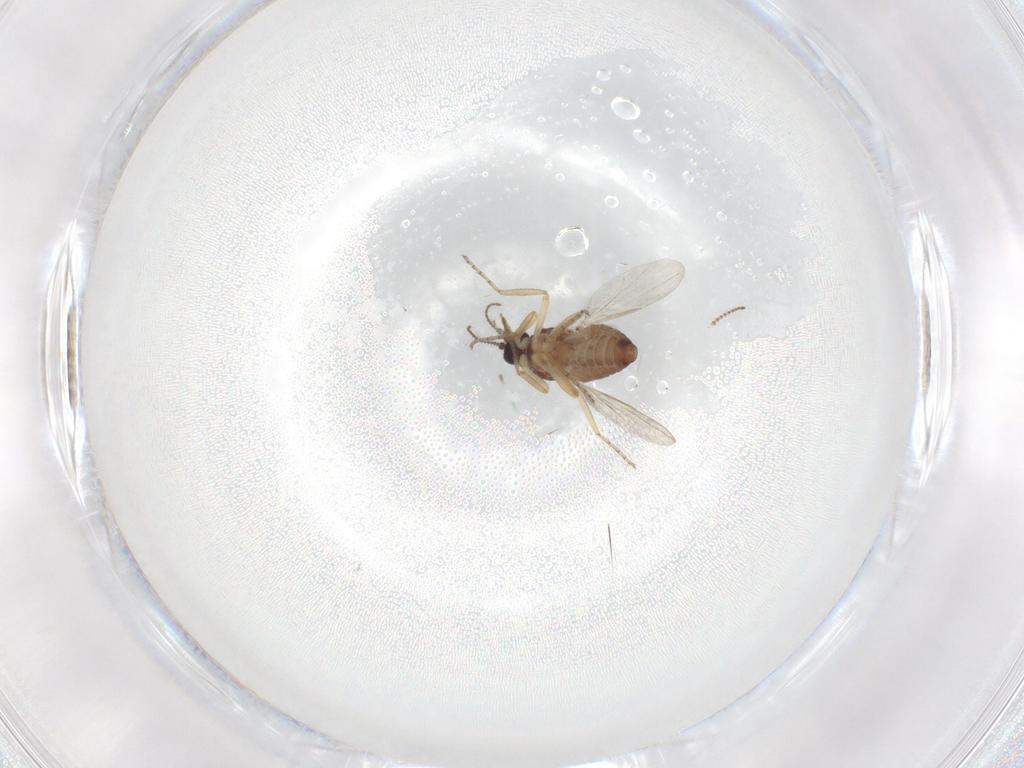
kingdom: Animalia
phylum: Arthropoda
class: Insecta
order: Diptera
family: Ceratopogonidae
